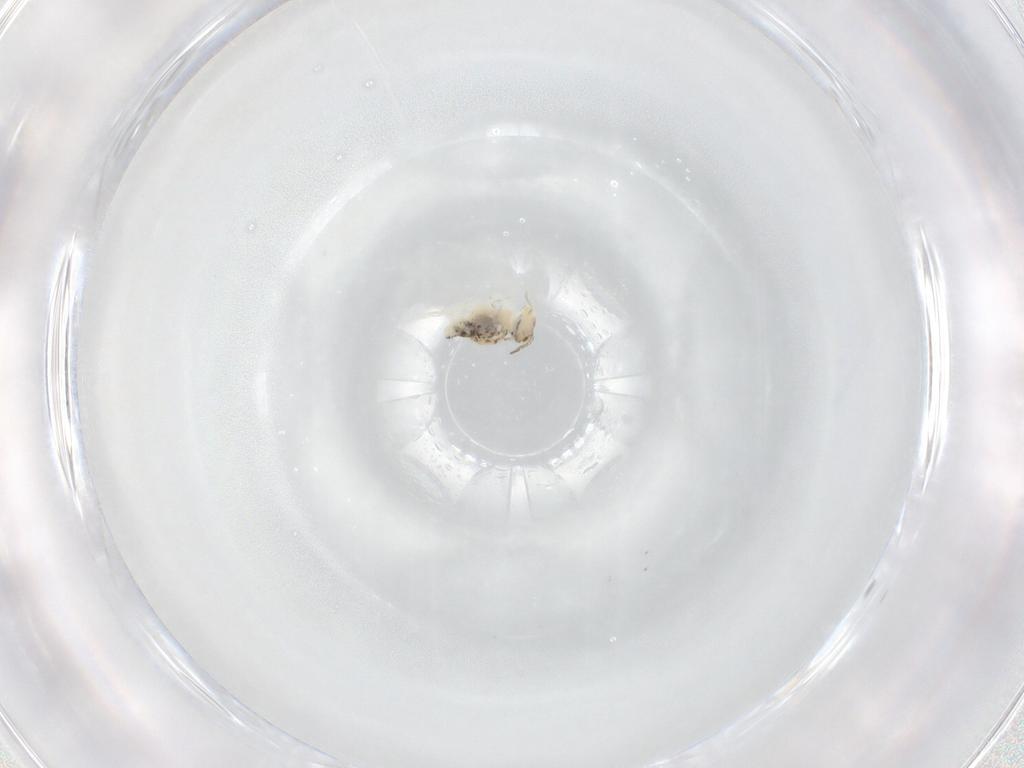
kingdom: Animalia
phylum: Arthropoda
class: Collembola
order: Symphypleona
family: Bourletiellidae
